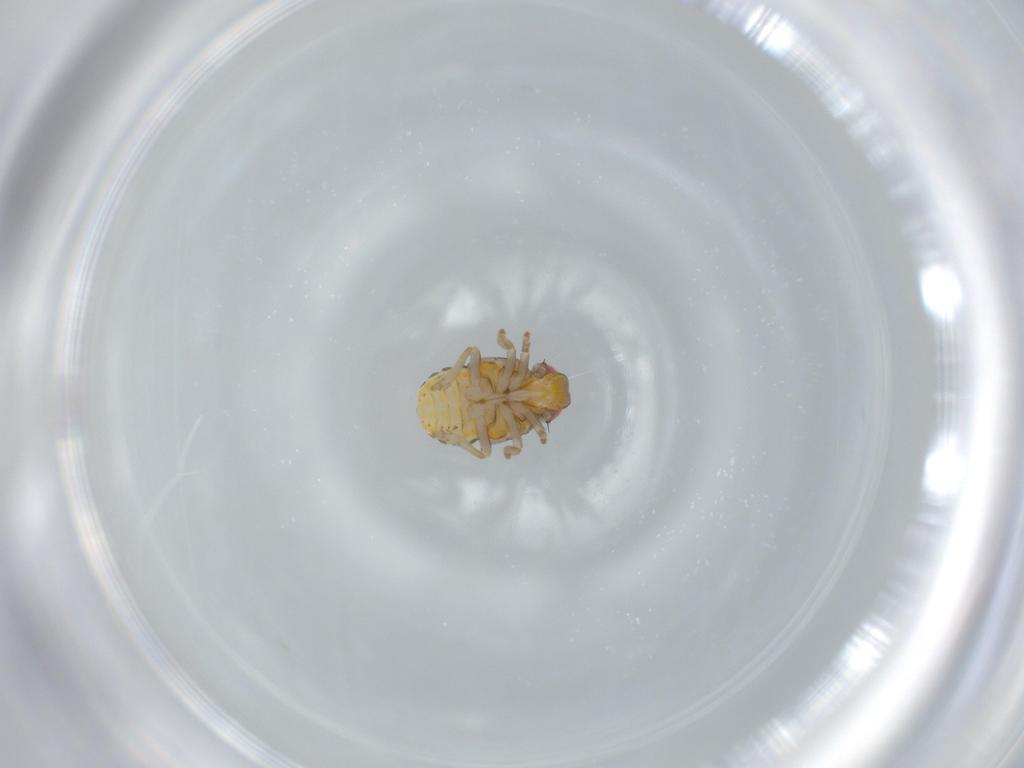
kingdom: Animalia
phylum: Arthropoda
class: Insecta
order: Hemiptera
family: Issidae
